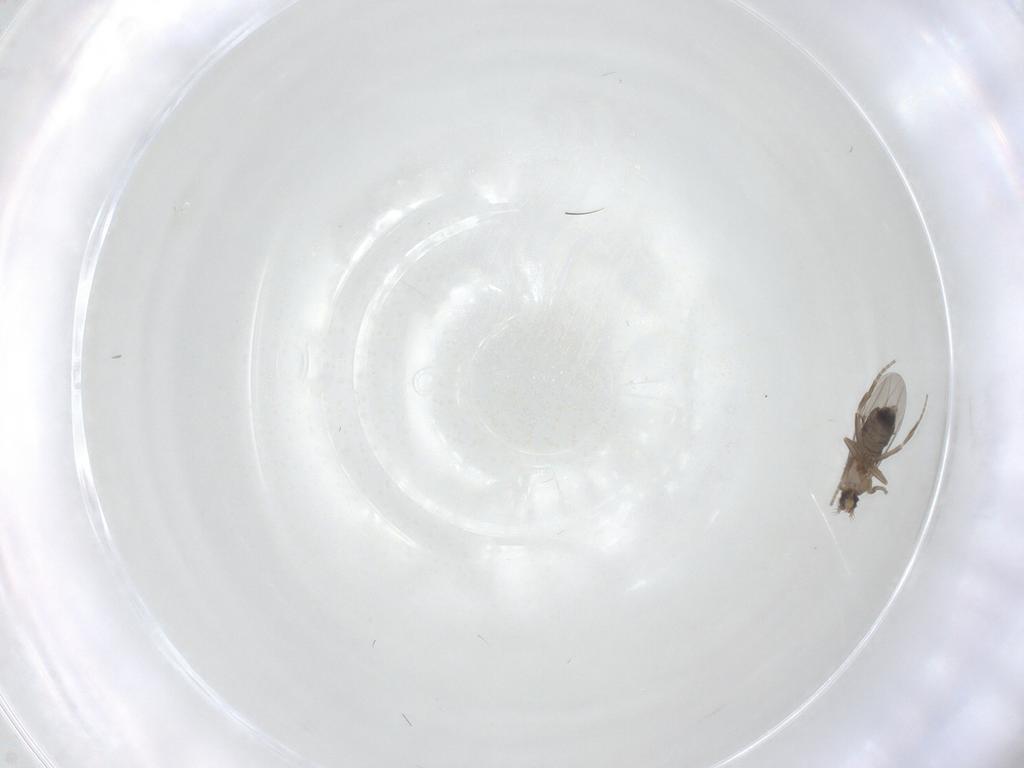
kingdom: Animalia
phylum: Arthropoda
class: Insecta
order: Diptera
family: Phoridae
